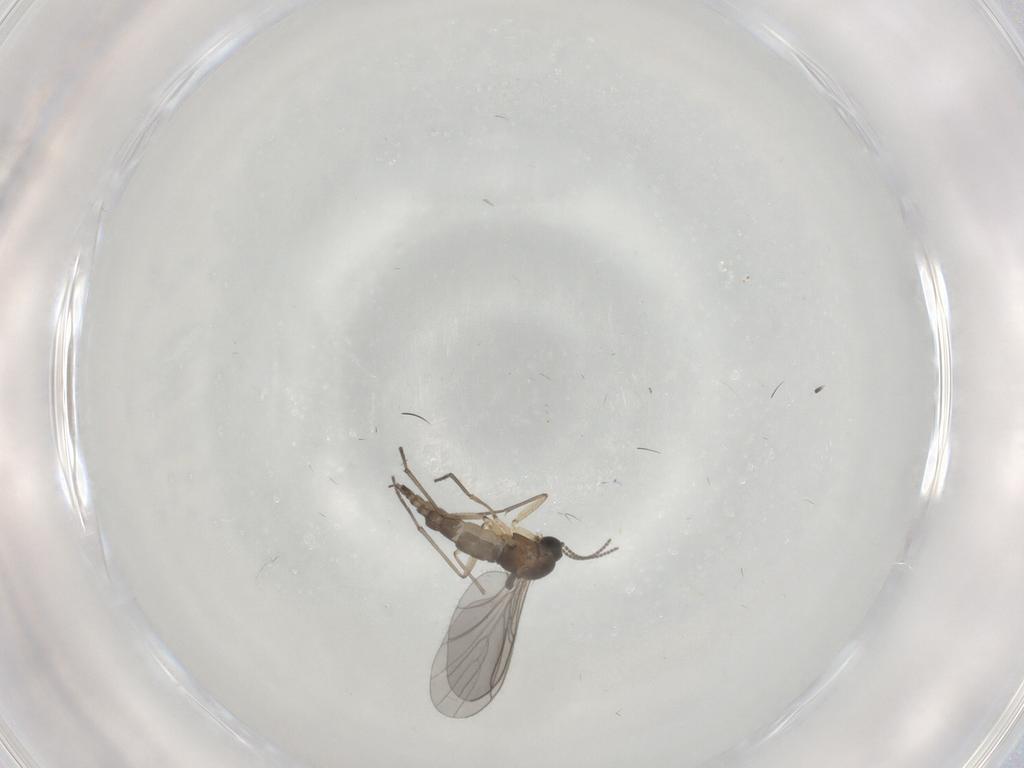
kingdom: Animalia
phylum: Arthropoda
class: Insecta
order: Diptera
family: Sciaridae
